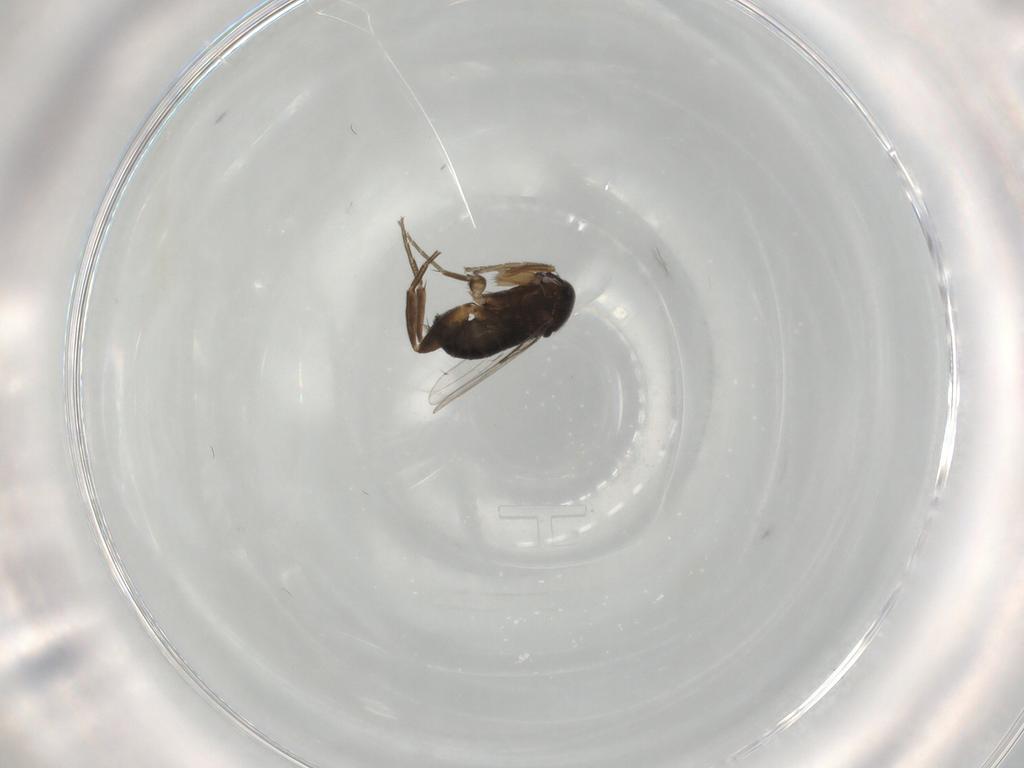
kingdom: Animalia
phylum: Arthropoda
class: Insecta
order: Diptera
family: Phoridae
